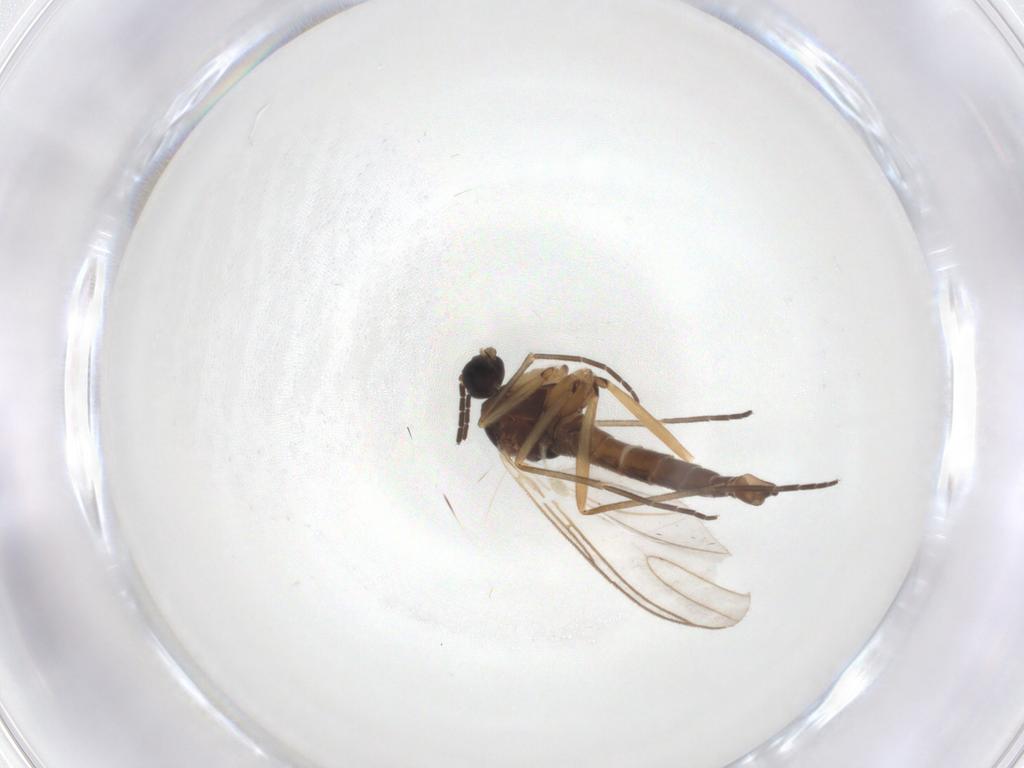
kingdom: Animalia
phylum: Arthropoda
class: Insecta
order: Diptera
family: Sciaridae
